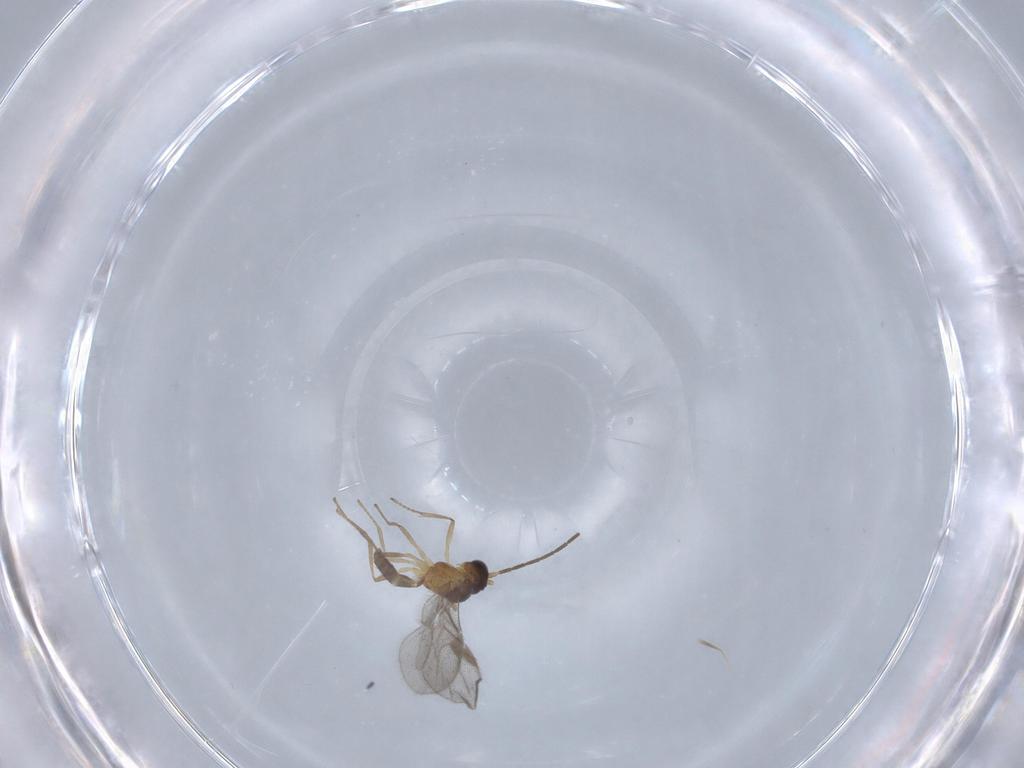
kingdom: Animalia
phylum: Arthropoda
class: Insecta
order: Hymenoptera
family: Braconidae
